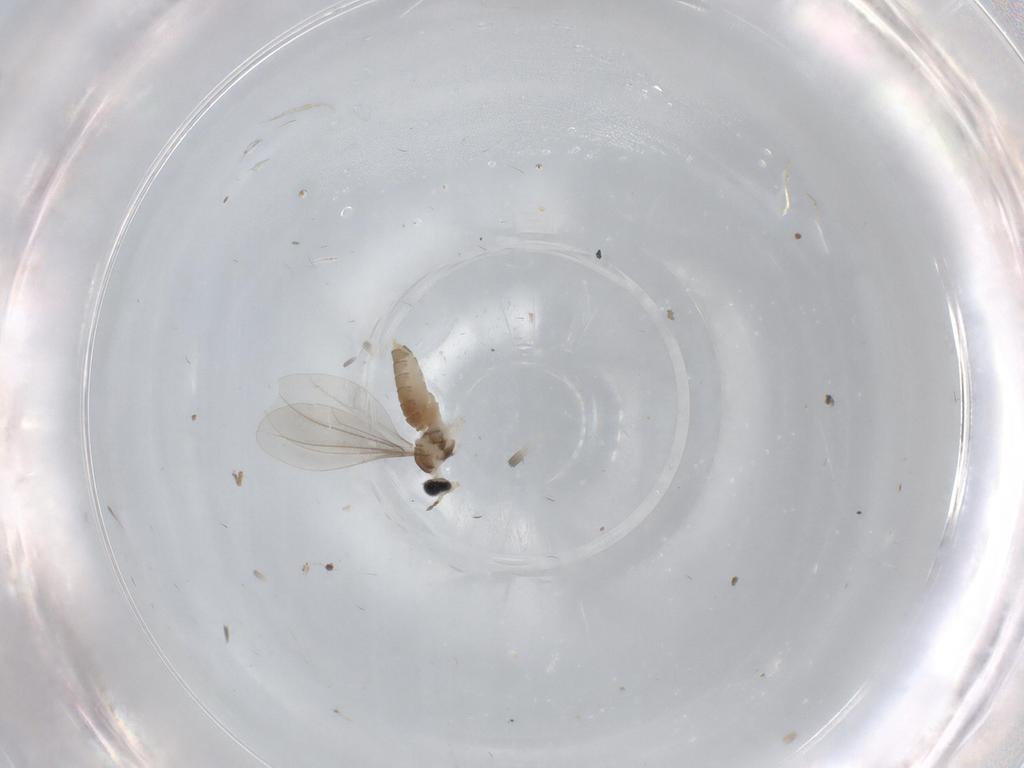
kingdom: Animalia
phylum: Arthropoda
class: Insecta
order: Diptera
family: Cecidomyiidae
